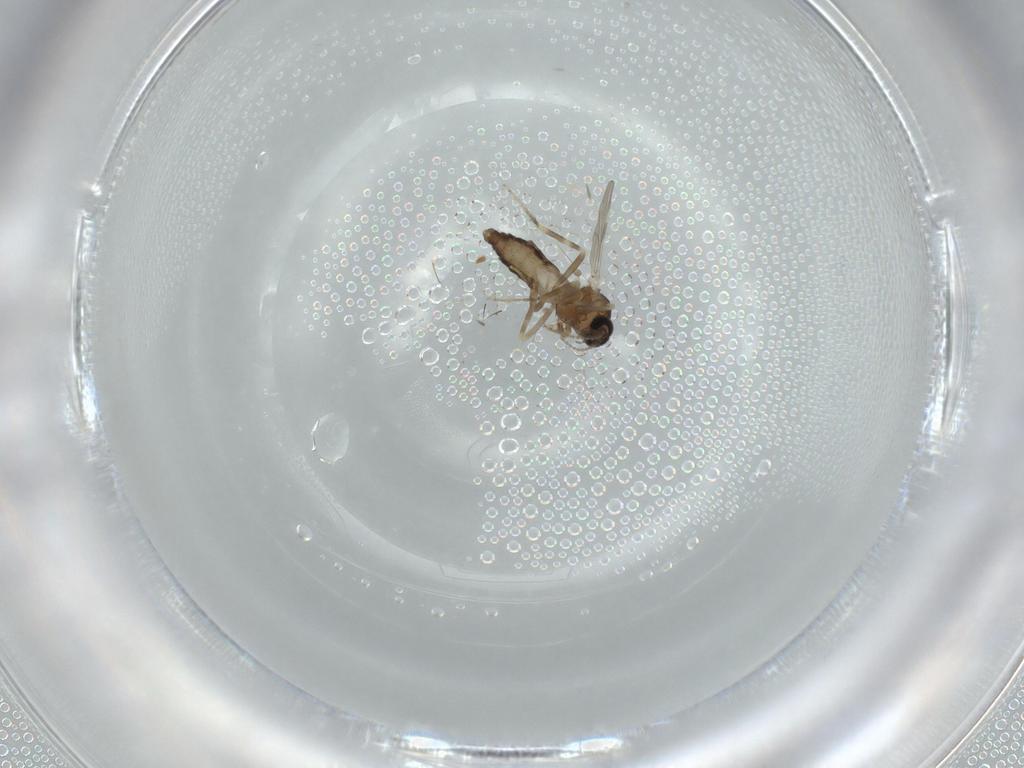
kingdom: Animalia
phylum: Arthropoda
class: Insecta
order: Diptera
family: Ceratopogonidae
